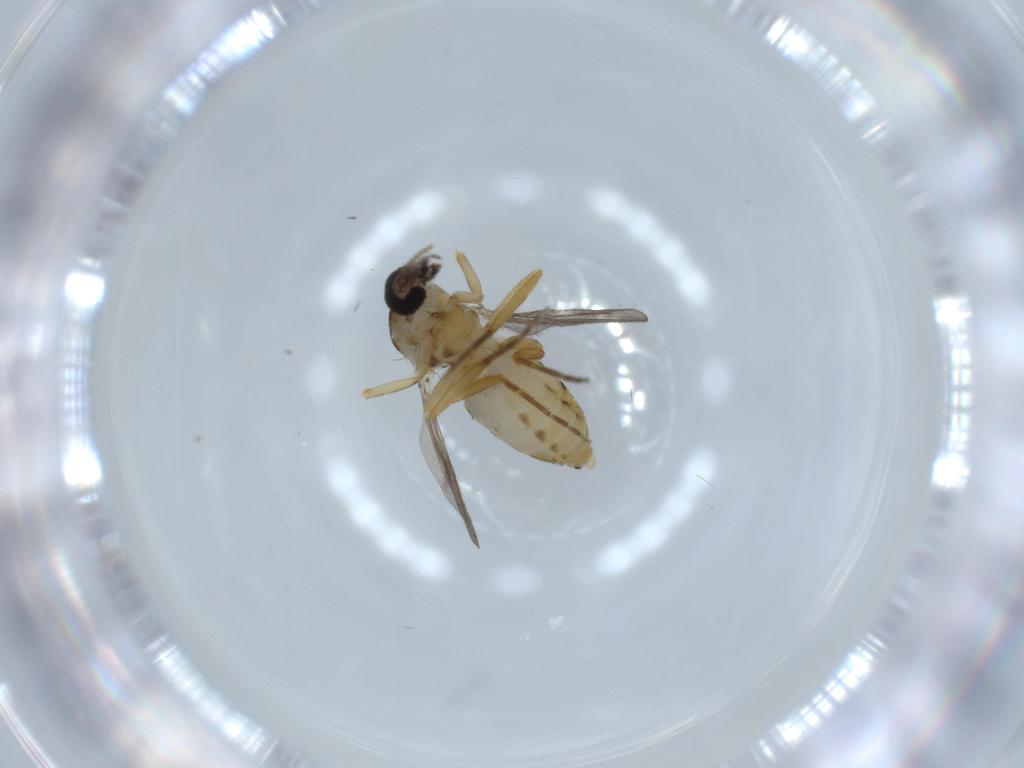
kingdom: Animalia
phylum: Arthropoda
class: Insecta
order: Diptera
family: Ceratopogonidae
